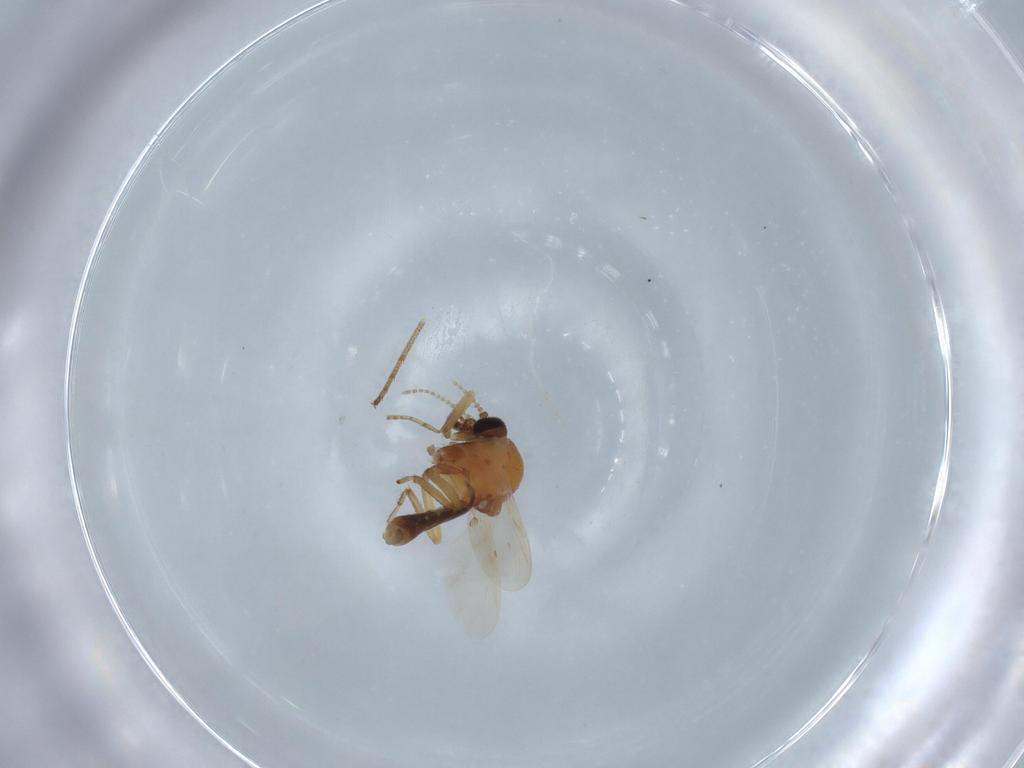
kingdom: Animalia
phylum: Arthropoda
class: Insecta
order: Diptera
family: Ceratopogonidae
